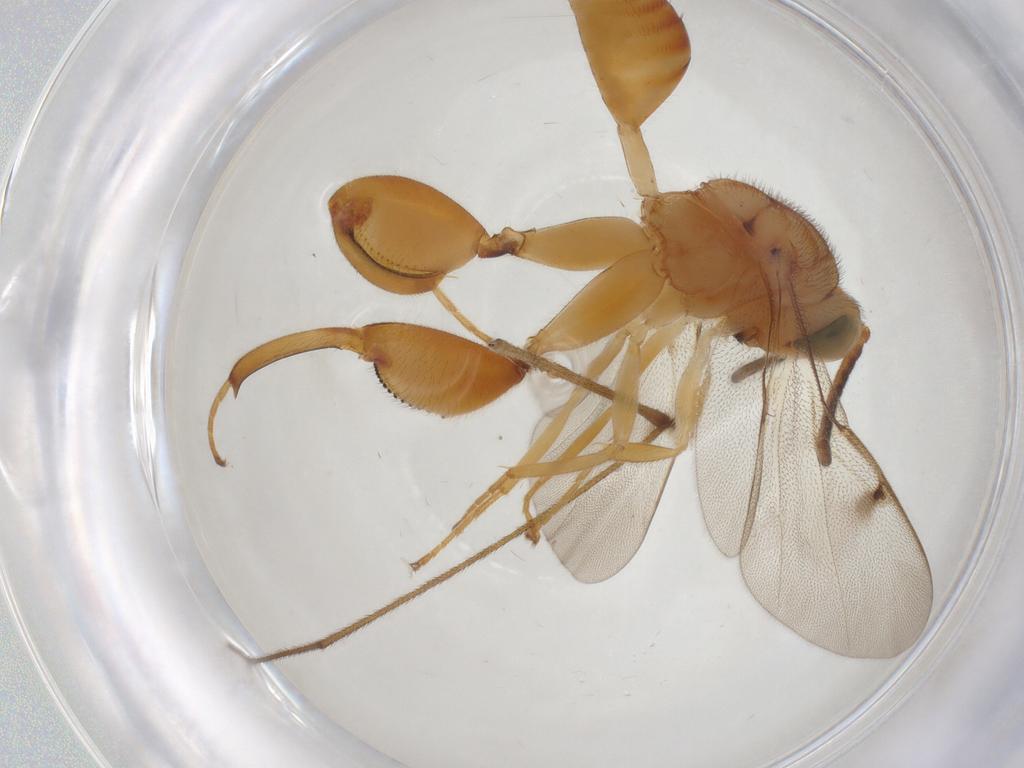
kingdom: Animalia
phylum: Arthropoda
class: Insecta
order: Hymenoptera
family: Chalcididae
